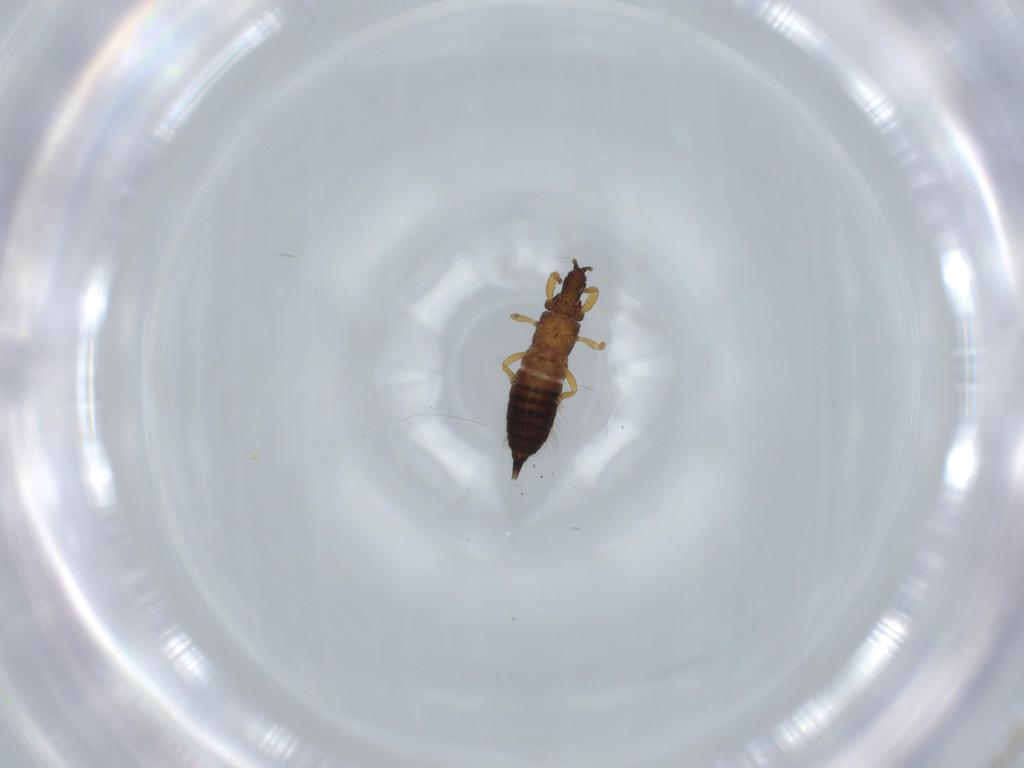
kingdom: Animalia
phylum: Arthropoda
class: Insecta
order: Thysanoptera
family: Phlaeothripidae
